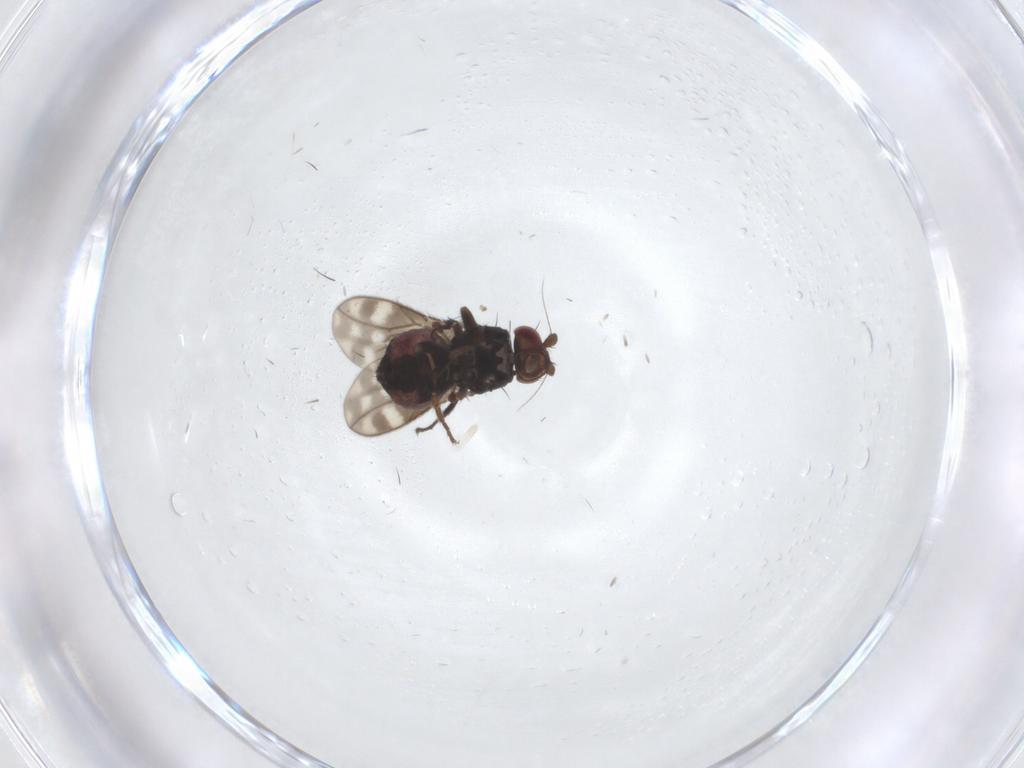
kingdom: Animalia
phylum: Arthropoda
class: Insecta
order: Diptera
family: Sphaeroceridae
